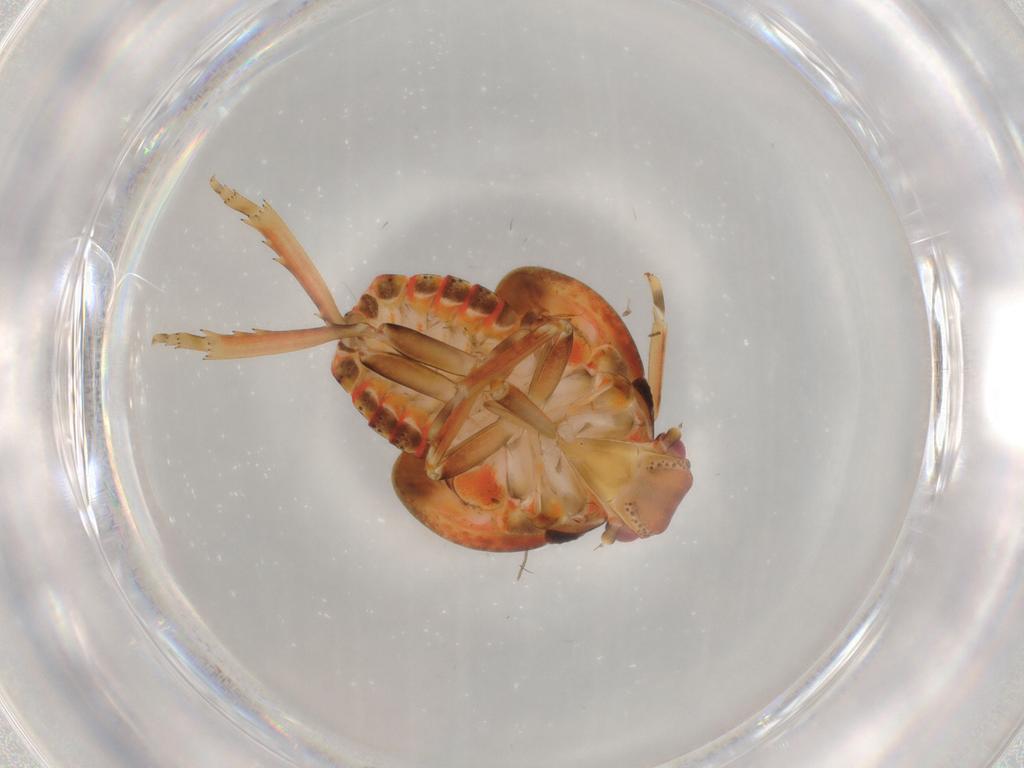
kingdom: Animalia
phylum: Arthropoda
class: Insecta
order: Hemiptera
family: Flatidae
